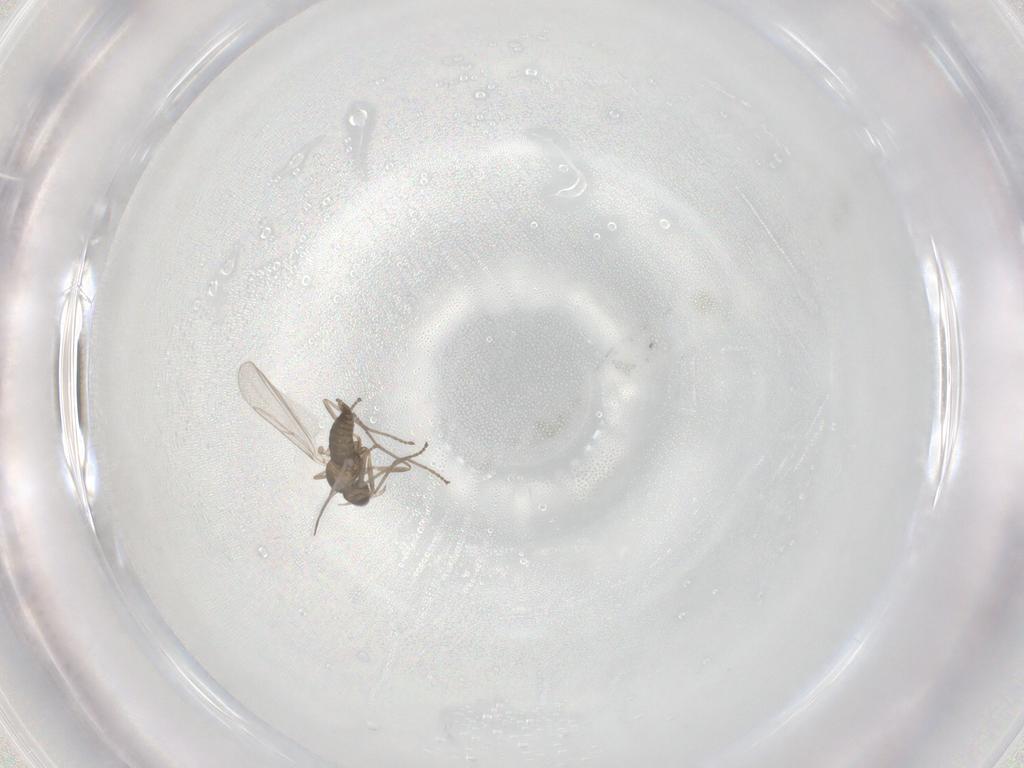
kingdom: Animalia
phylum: Arthropoda
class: Insecta
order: Diptera
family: Cecidomyiidae
